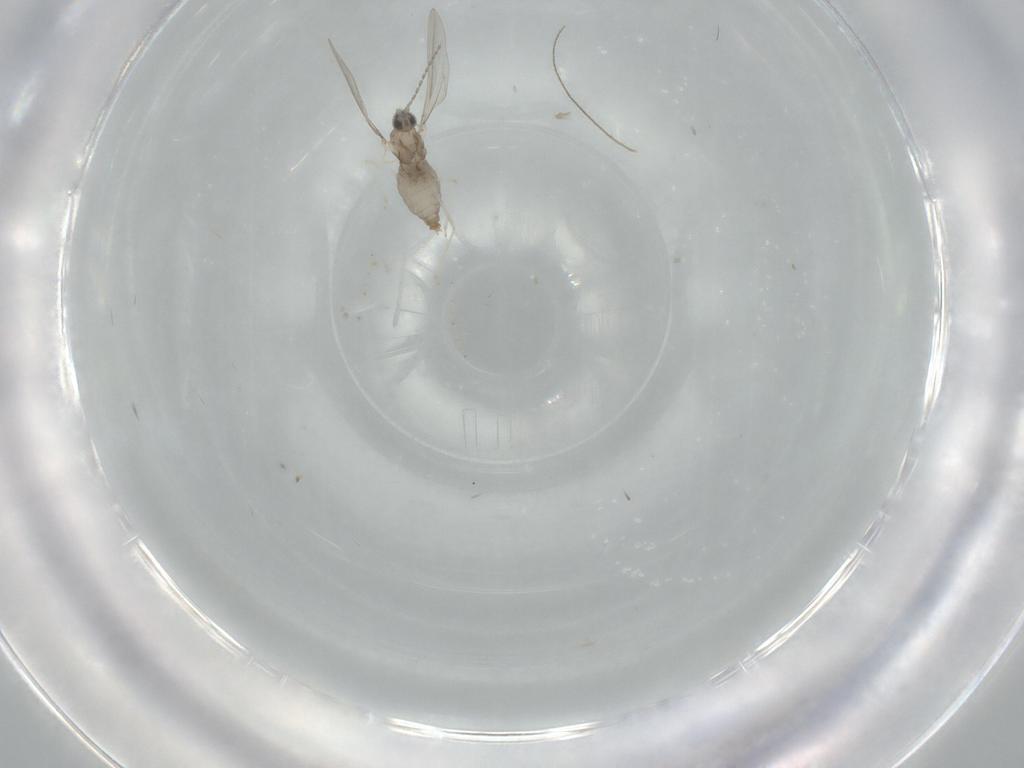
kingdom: Animalia
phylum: Arthropoda
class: Insecta
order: Diptera
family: Cecidomyiidae
